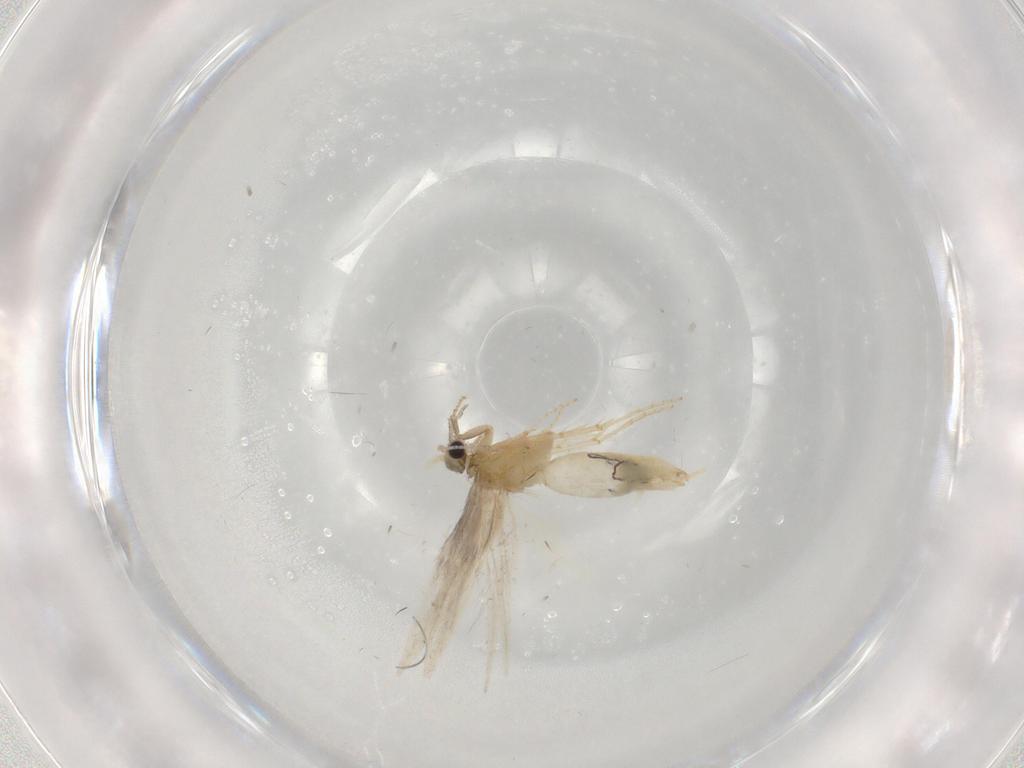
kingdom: Animalia
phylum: Arthropoda
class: Insecta
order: Trichoptera
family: Hydroptilidae
